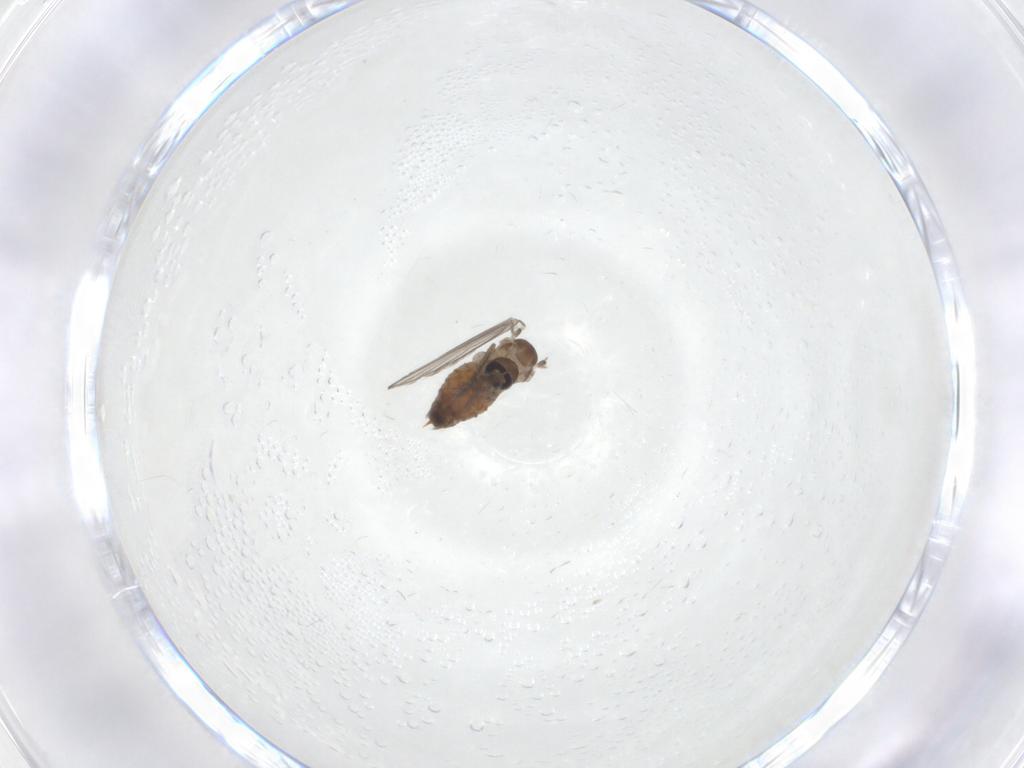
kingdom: Animalia
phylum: Arthropoda
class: Insecta
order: Diptera
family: Psychodidae
